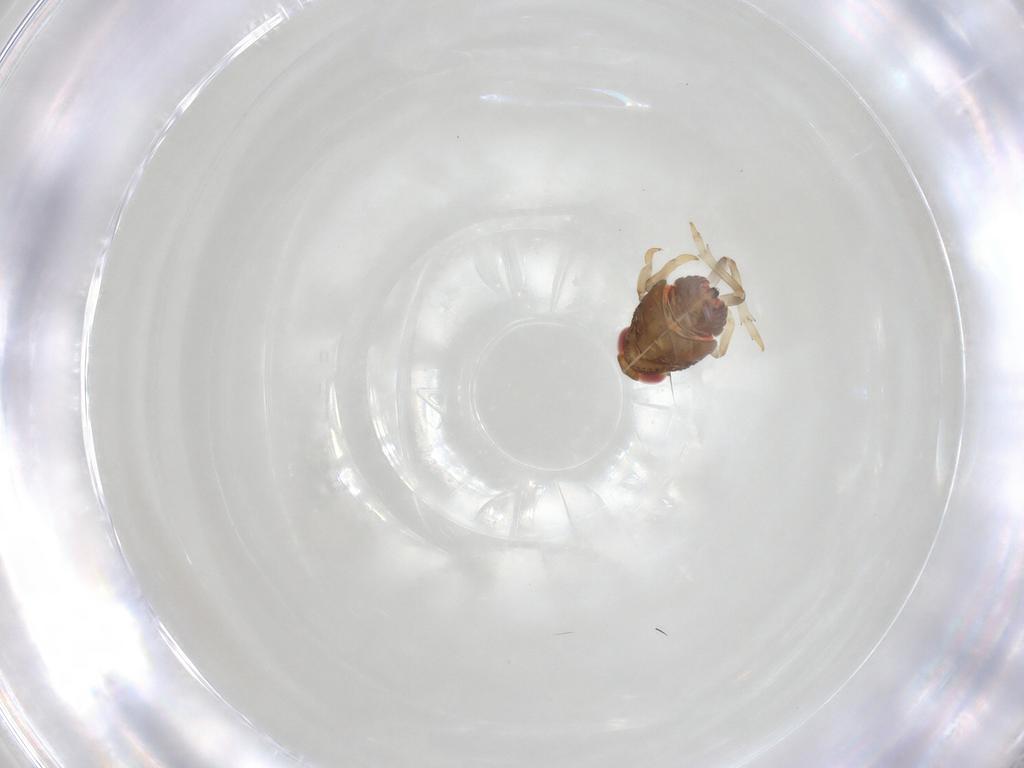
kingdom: Animalia
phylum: Arthropoda
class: Insecta
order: Hemiptera
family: Issidae
